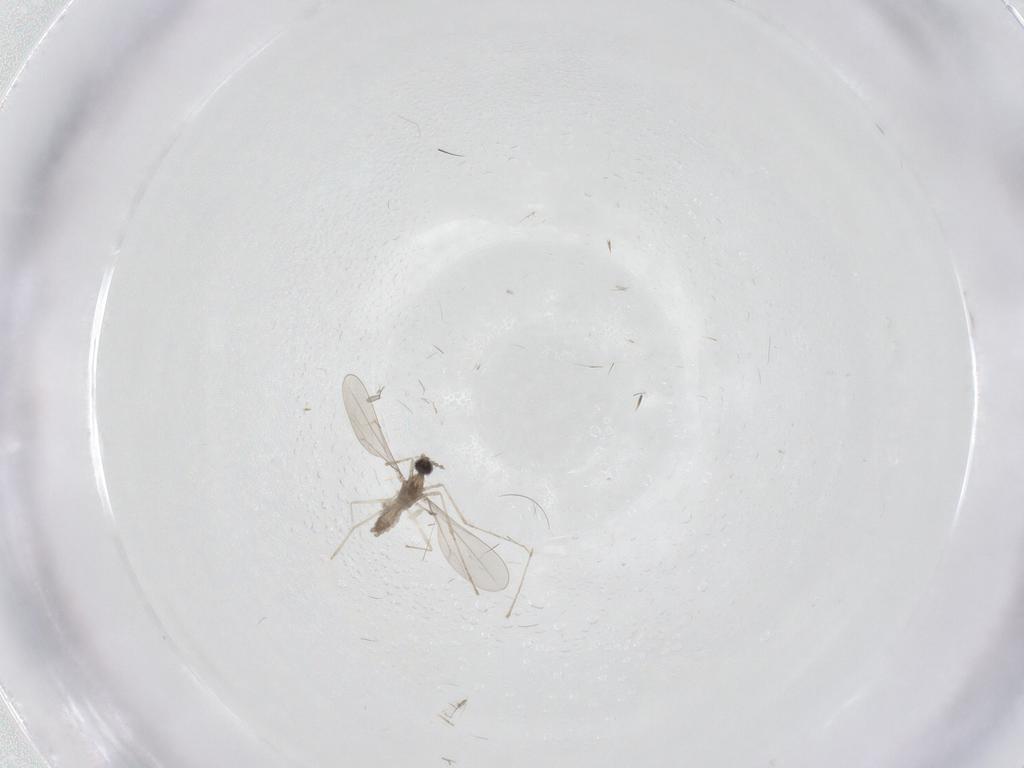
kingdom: Animalia
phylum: Arthropoda
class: Insecta
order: Diptera
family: Cecidomyiidae
